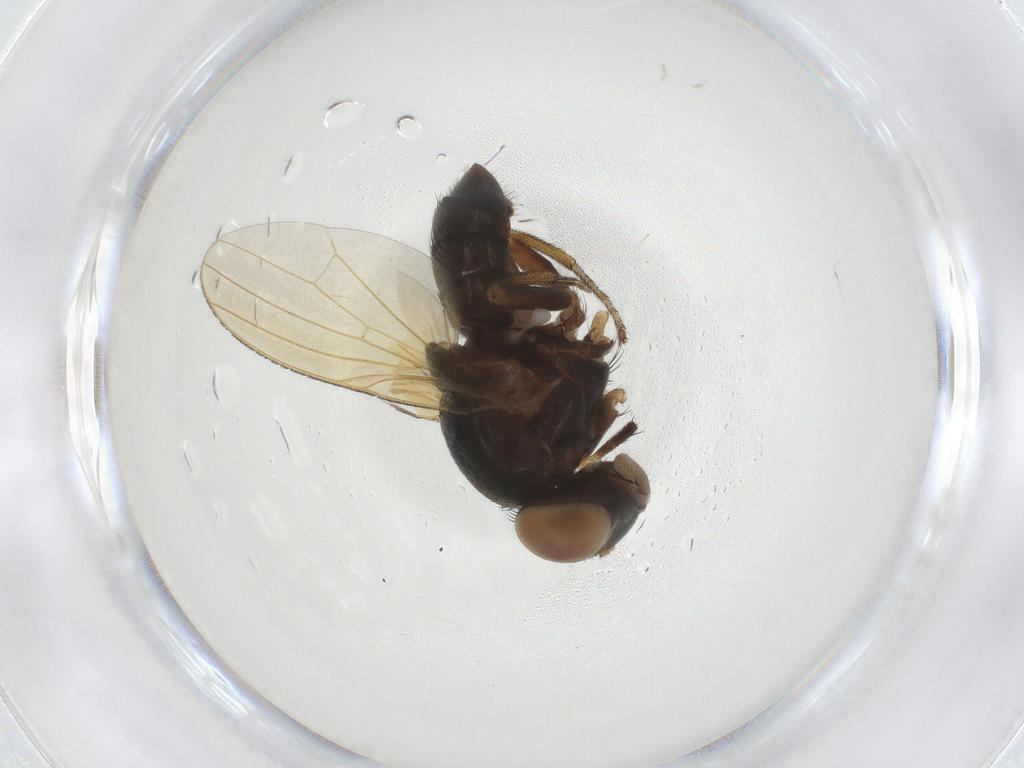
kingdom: Animalia
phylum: Arthropoda
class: Insecta
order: Diptera
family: Lauxaniidae
